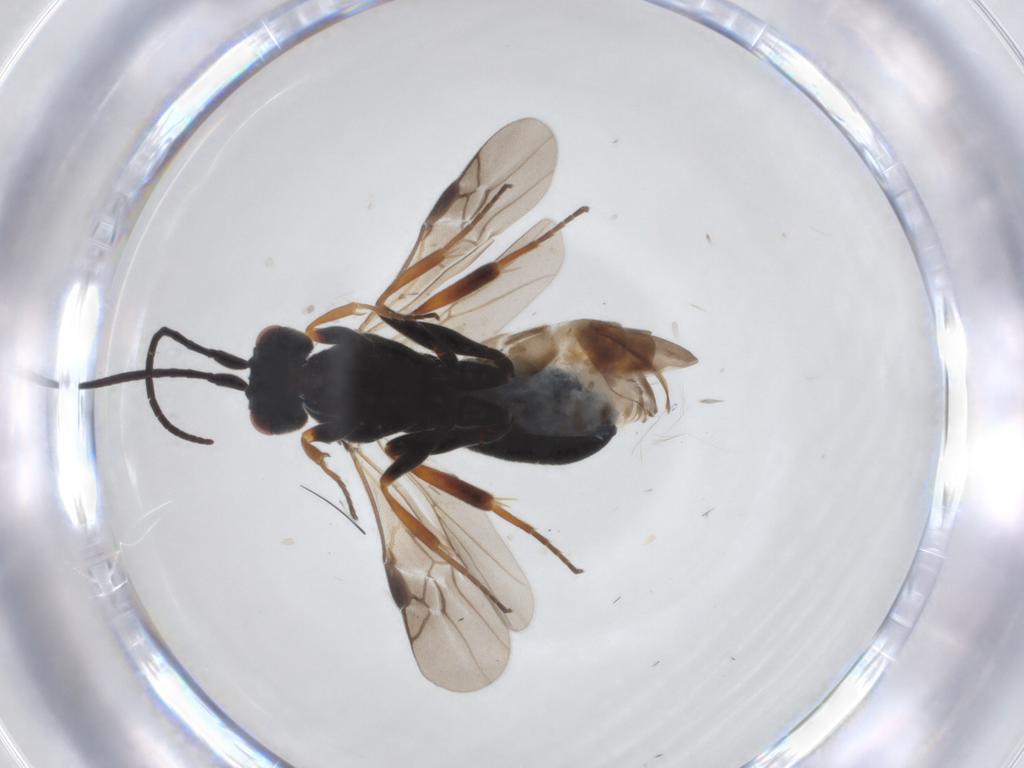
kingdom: Animalia
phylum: Arthropoda
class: Insecta
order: Hymenoptera
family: Braconidae
